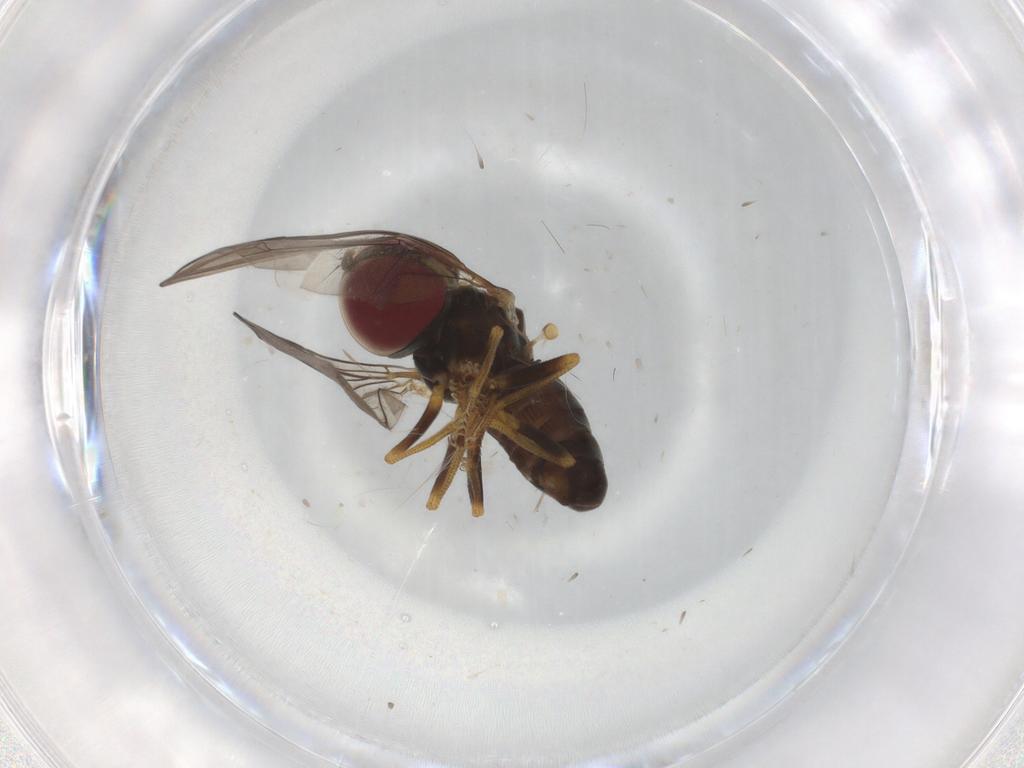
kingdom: Animalia
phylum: Arthropoda
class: Insecta
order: Diptera
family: Pipunculidae
